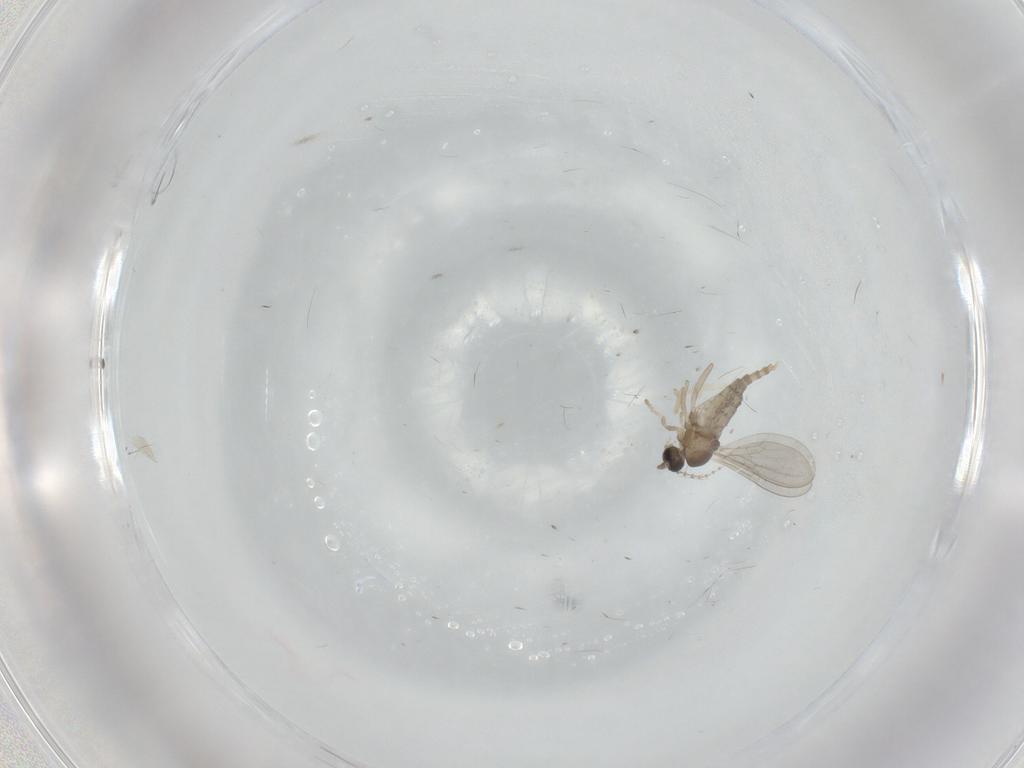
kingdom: Animalia
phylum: Arthropoda
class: Insecta
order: Diptera
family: Cecidomyiidae
